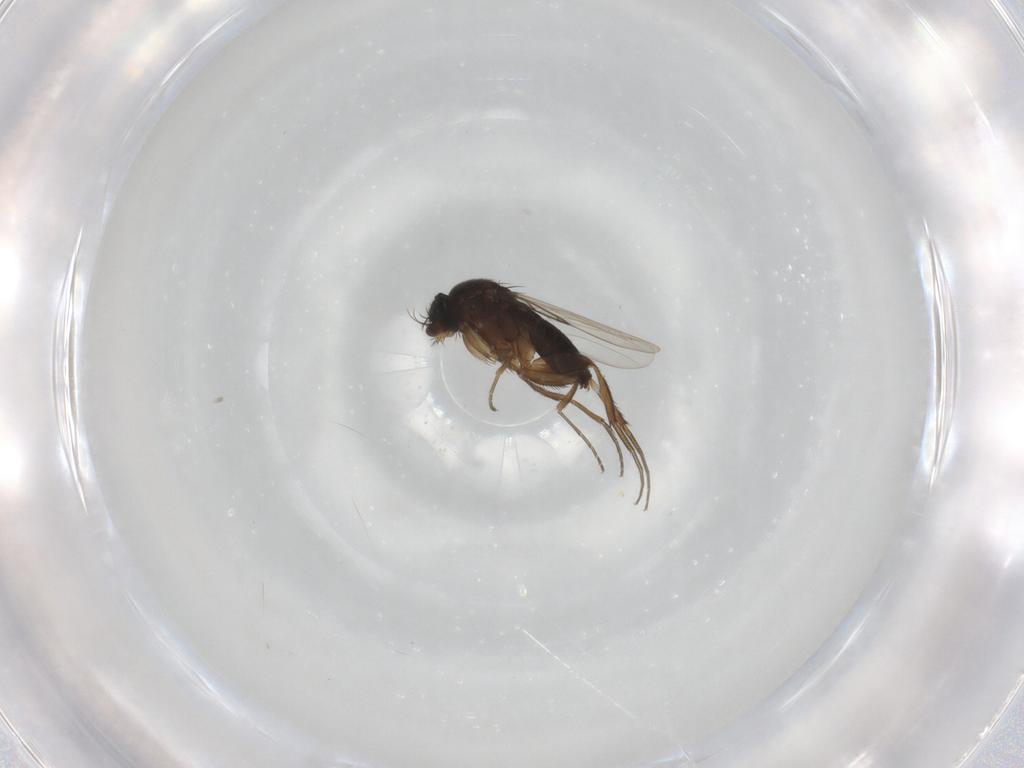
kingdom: Animalia
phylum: Arthropoda
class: Insecta
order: Diptera
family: Phoridae
